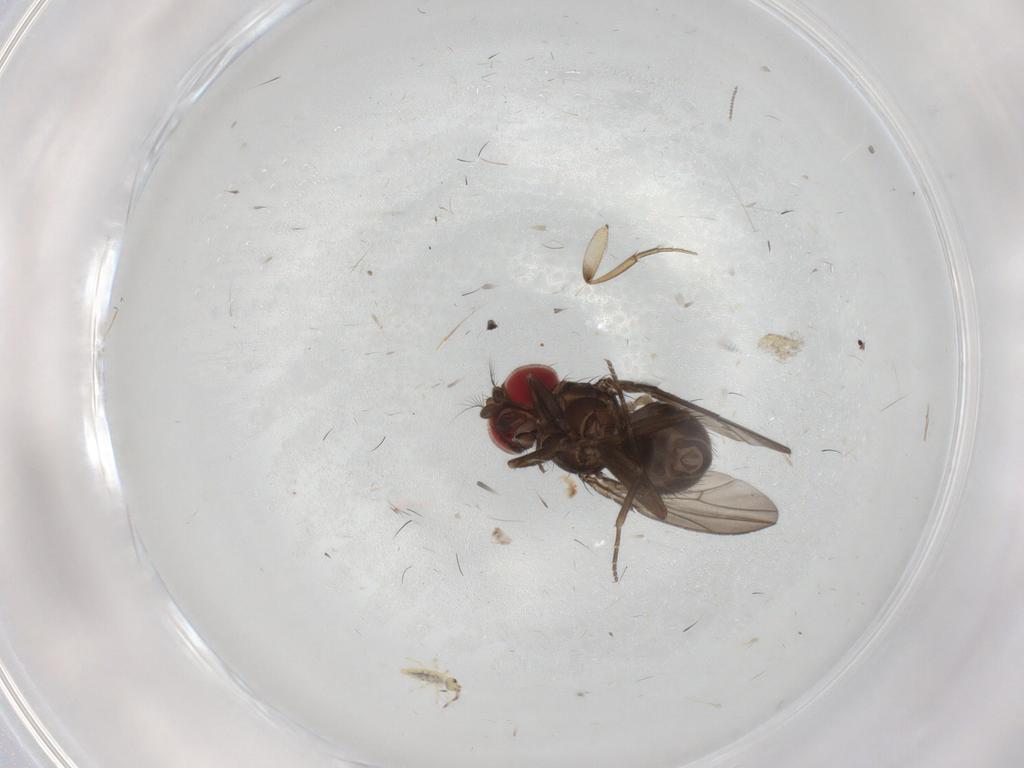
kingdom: Animalia
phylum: Arthropoda
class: Insecta
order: Diptera
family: Drosophilidae
